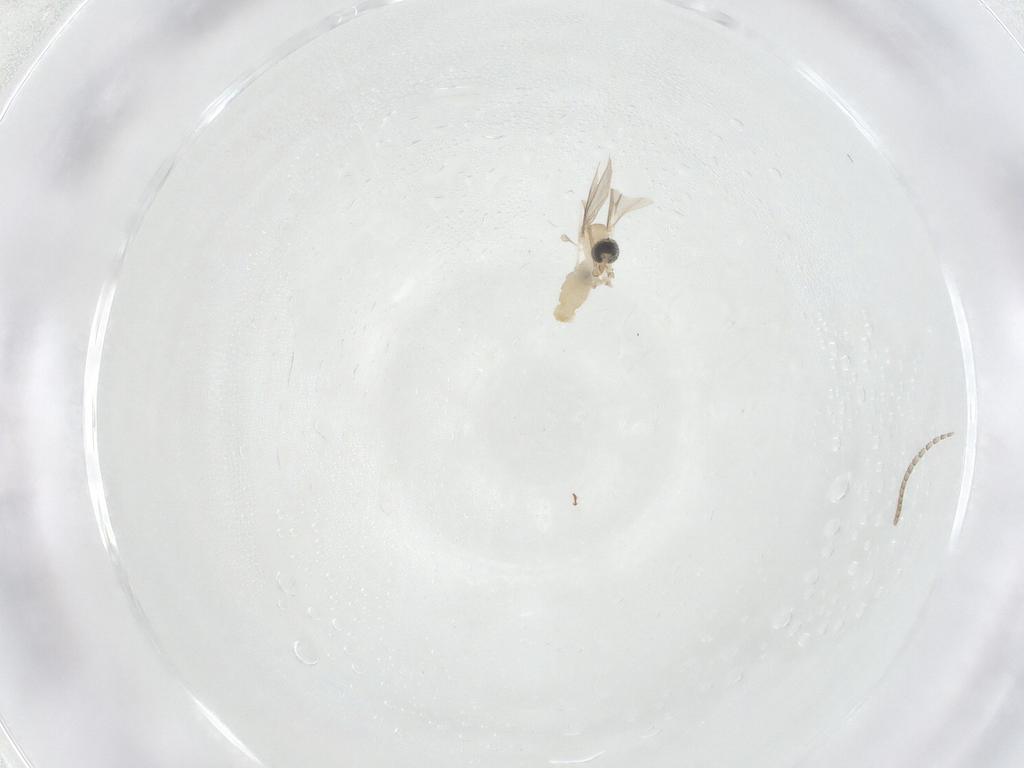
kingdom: Animalia
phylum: Arthropoda
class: Insecta
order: Diptera
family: Cecidomyiidae
